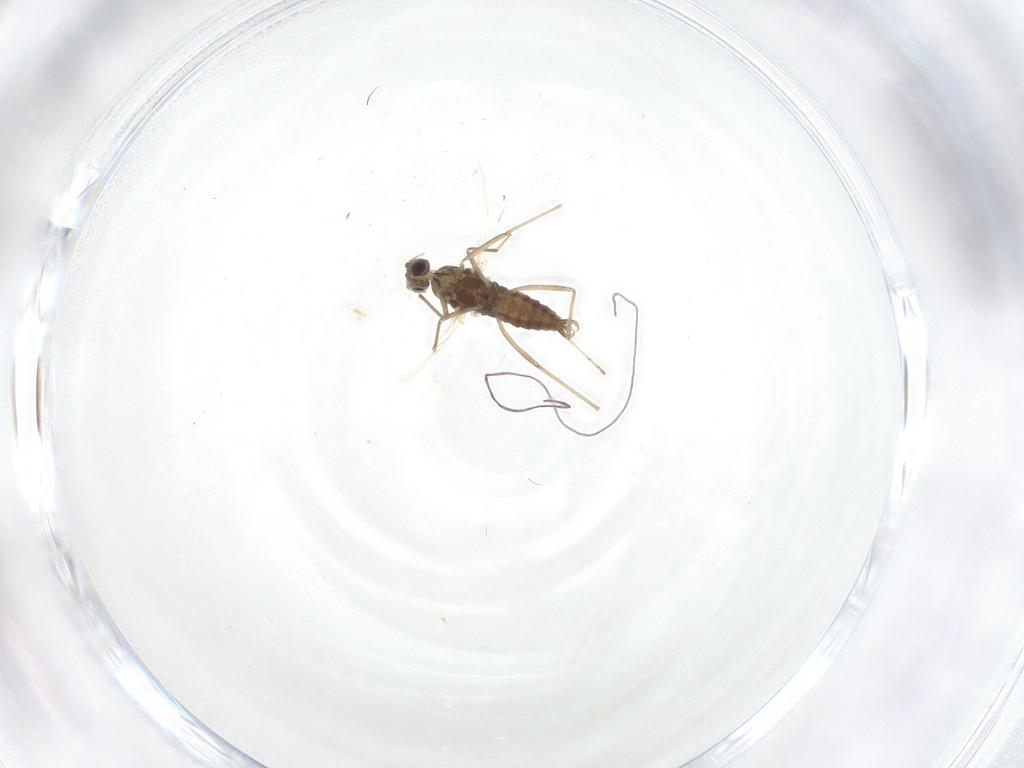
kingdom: Animalia
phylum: Arthropoda
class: Insecta
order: Diptera
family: Cecidomyiidae
